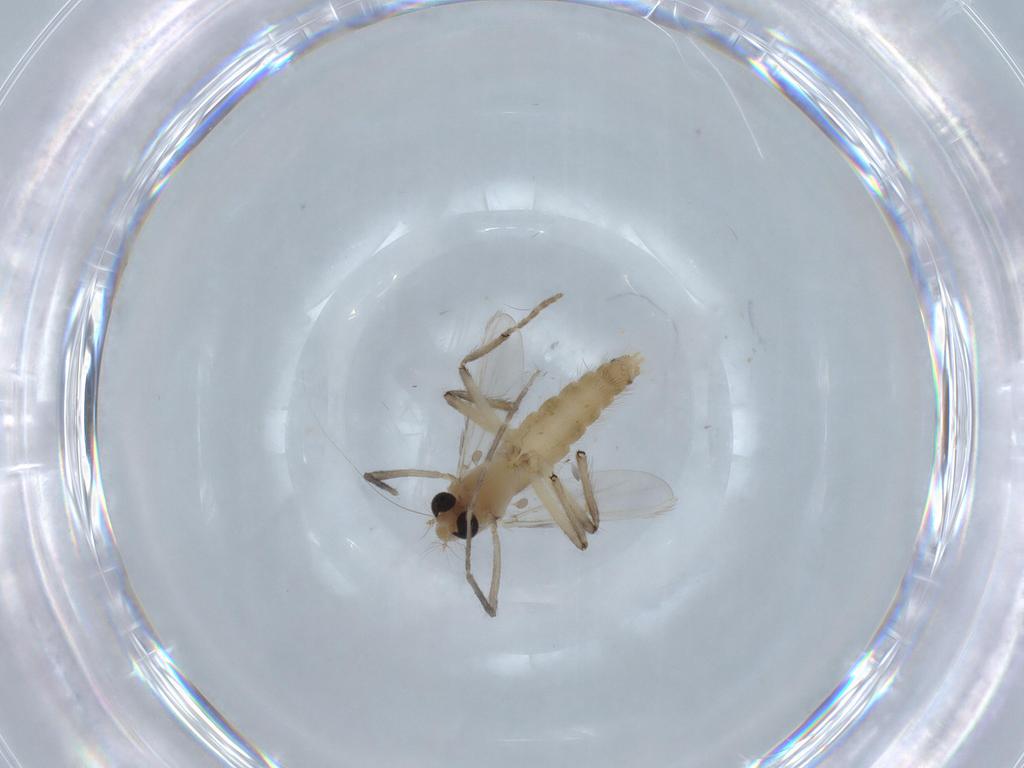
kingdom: Animalia
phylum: Arthropoda
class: Insecta
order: Diptera
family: Chironomidae
